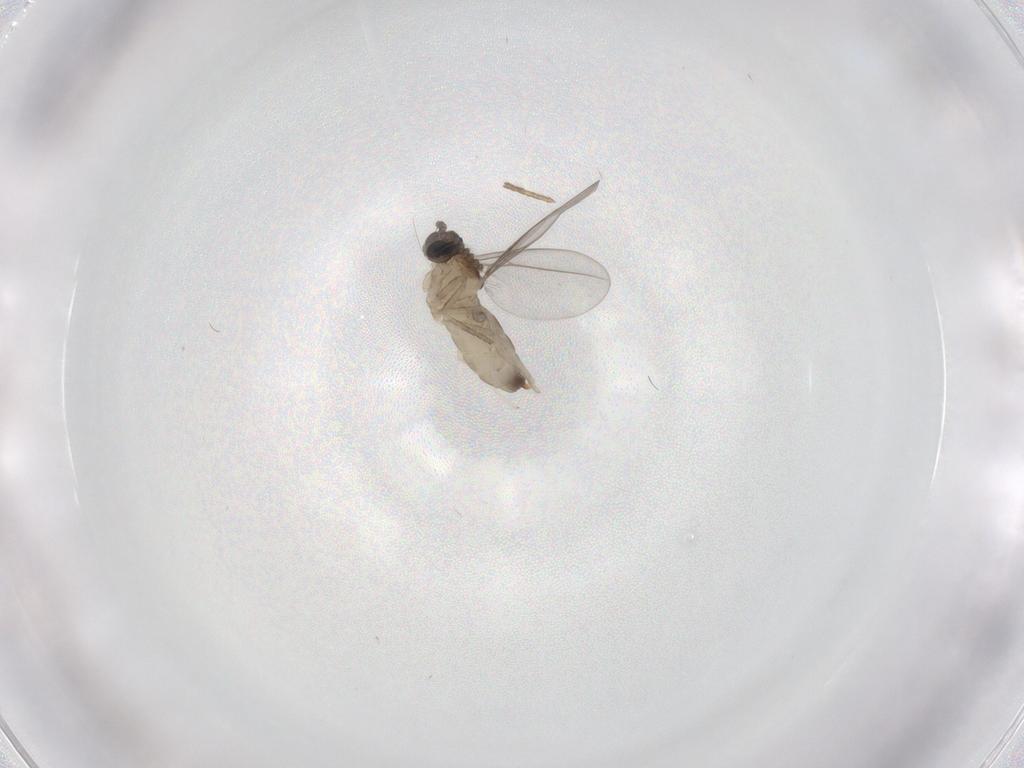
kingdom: Animalia
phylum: Arthropoda
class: Insecta
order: Diptera
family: Cecidomyiidae
